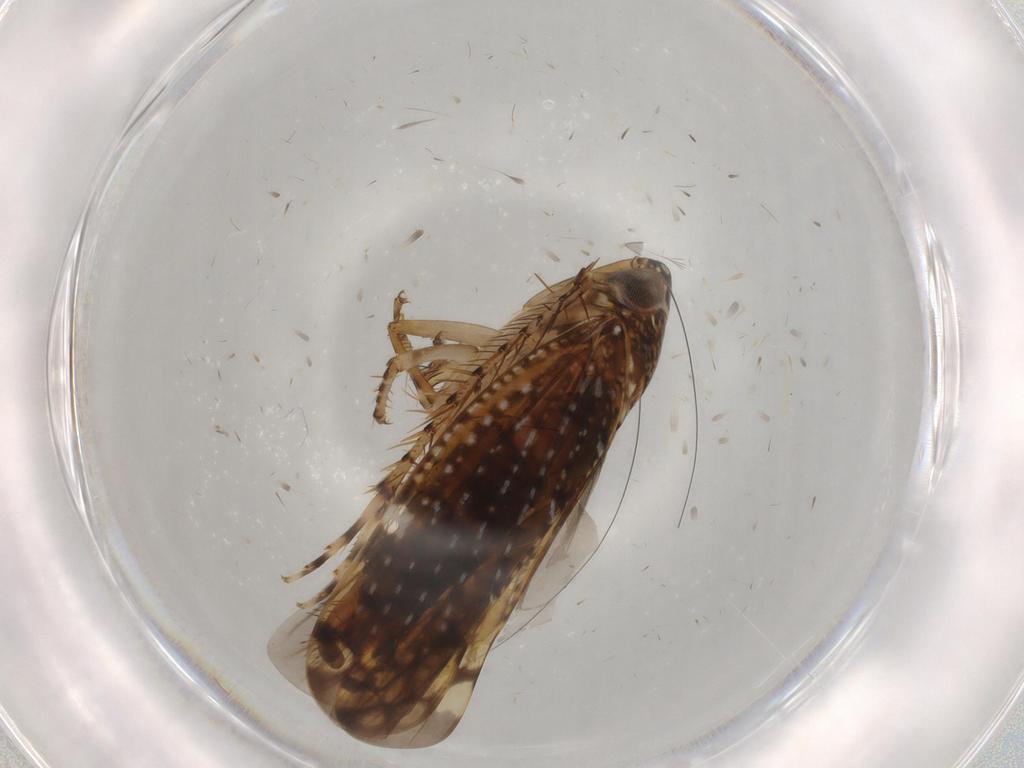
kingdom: Animalia
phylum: Arthropoda
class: Insecta
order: Hemiptera
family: Cicadellidae
